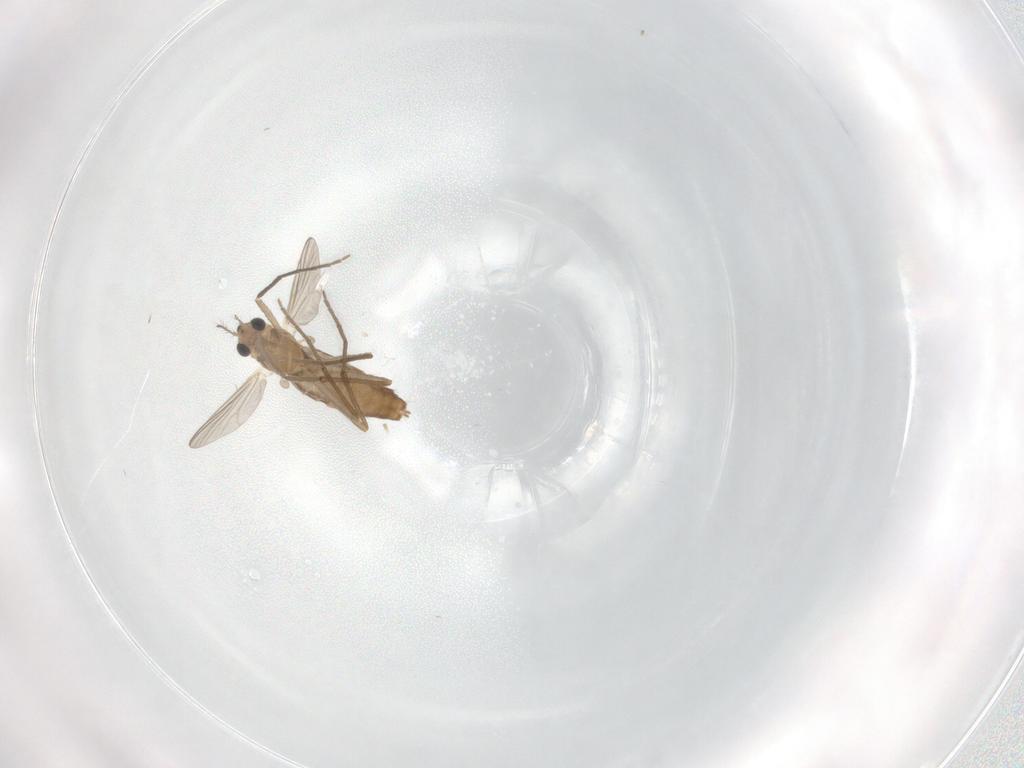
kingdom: Animalia
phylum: Arthropoda
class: Insecta
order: Diptera
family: Chironomidae
